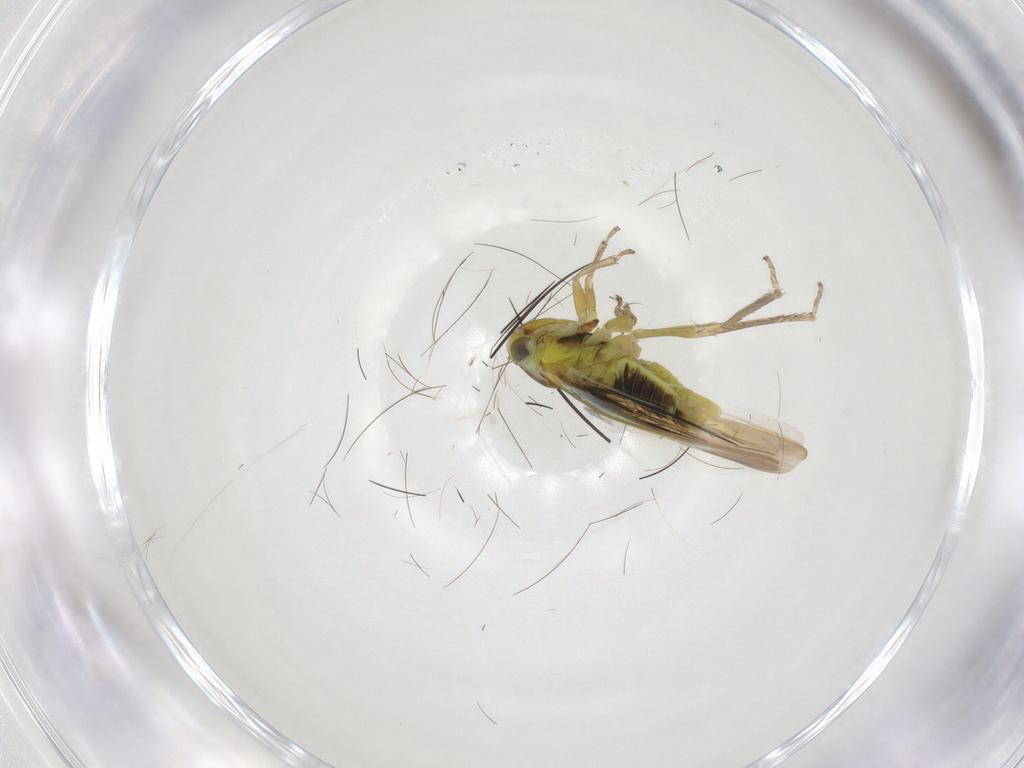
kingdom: Animalia
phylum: Arthropoda
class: Insecta
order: Hemiptera
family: Cicadellidae
